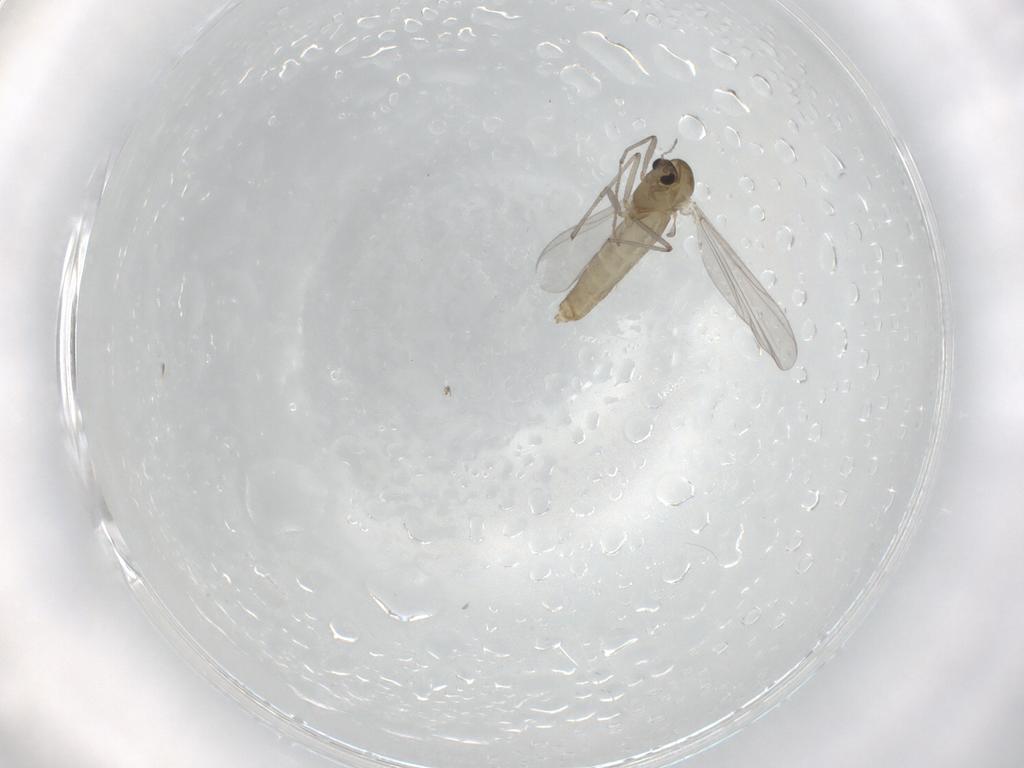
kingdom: Animalia
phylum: Arthropoda
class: Insecta
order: Diptera
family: Chironomidae
